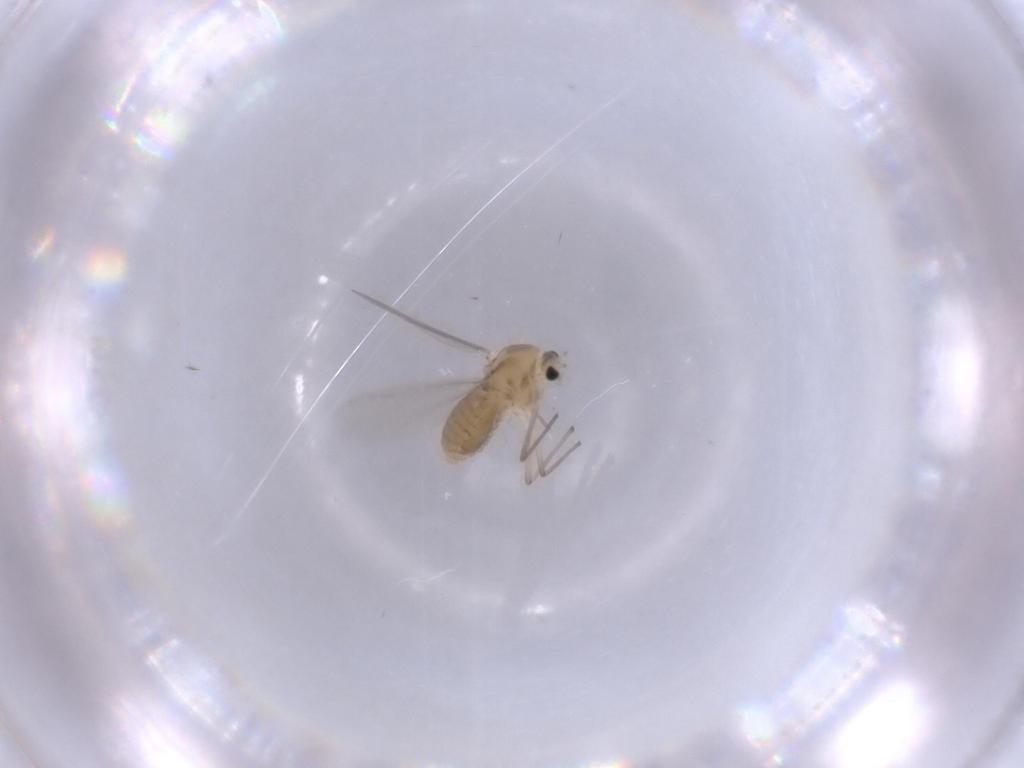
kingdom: Animalia
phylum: Arthropoda
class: Insecta
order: Diptera
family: Chironomidae
